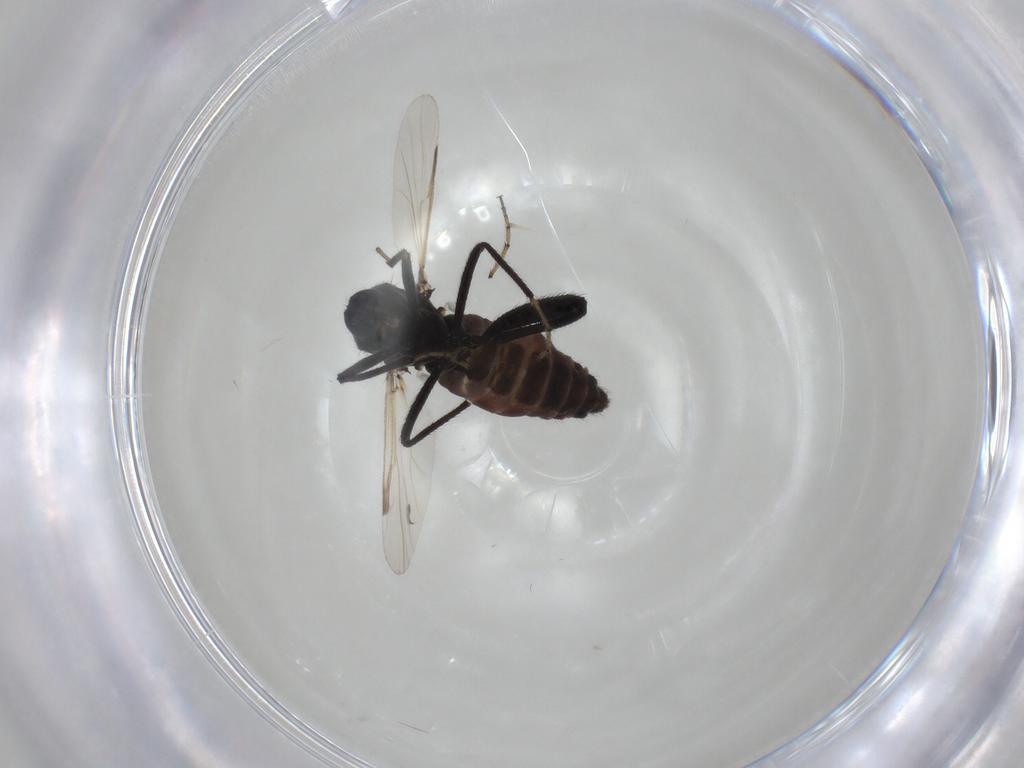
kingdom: Animalia
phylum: Arthropoda
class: Insecta
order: Diptera
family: Ceratopogonidae
